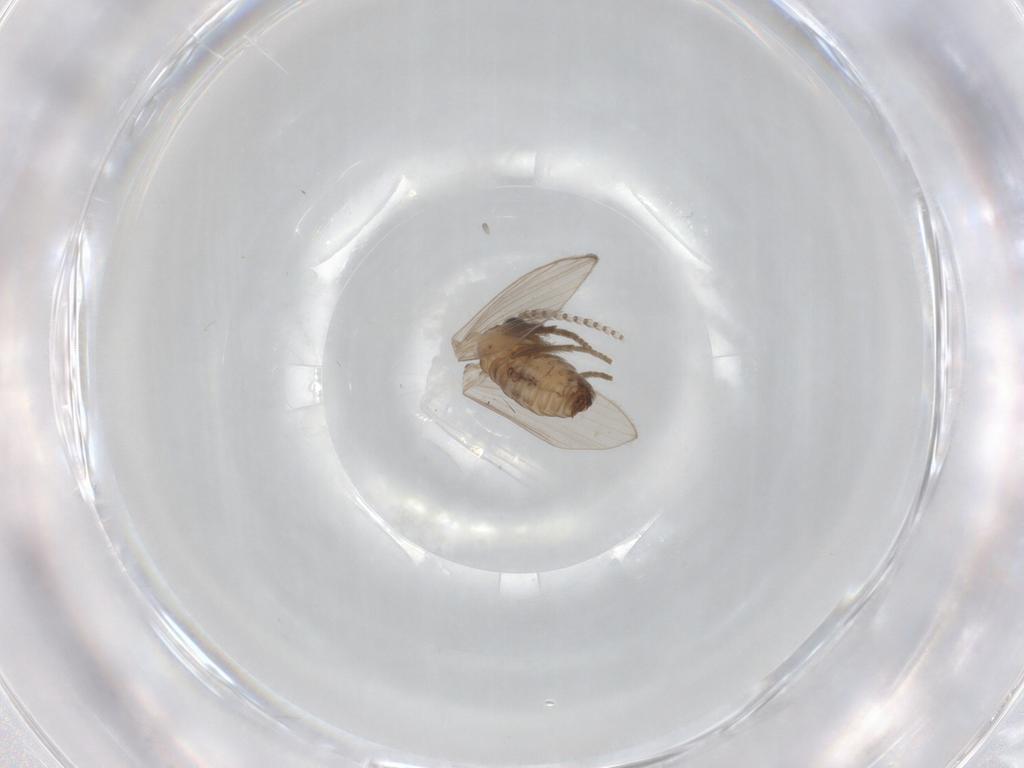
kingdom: Animalia
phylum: Arthropoda
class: Insecta
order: Diptera
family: Psychodidae
